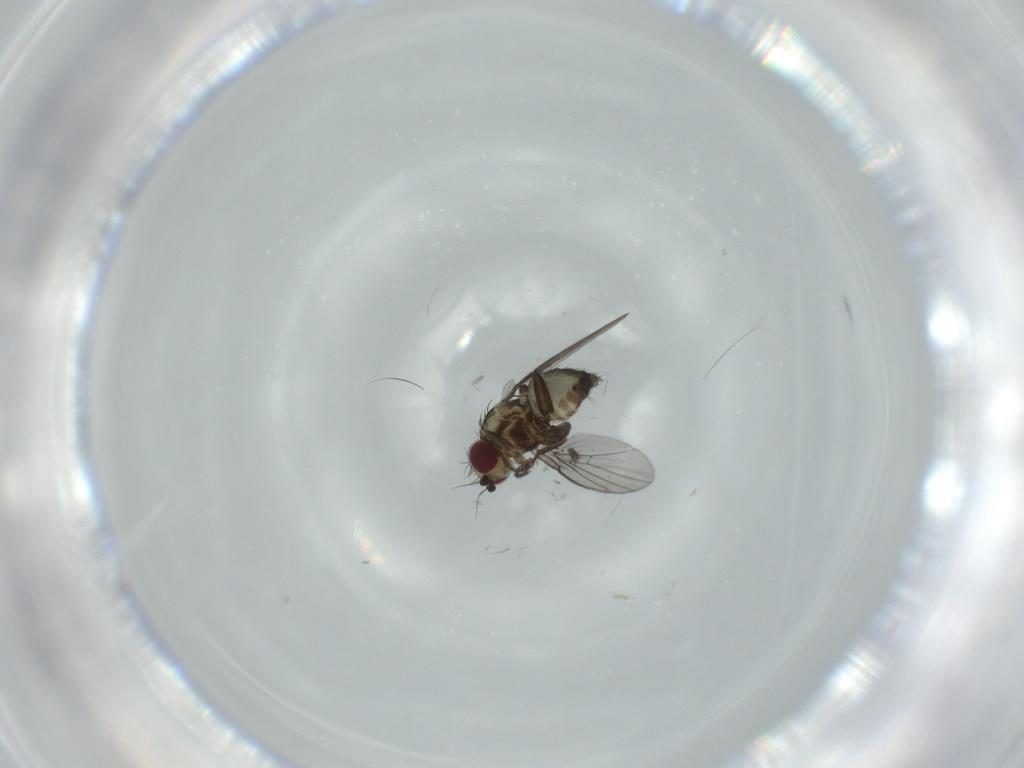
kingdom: Animalia
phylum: Arthropoda
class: Insecta
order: Diptera
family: Agromyzidae
